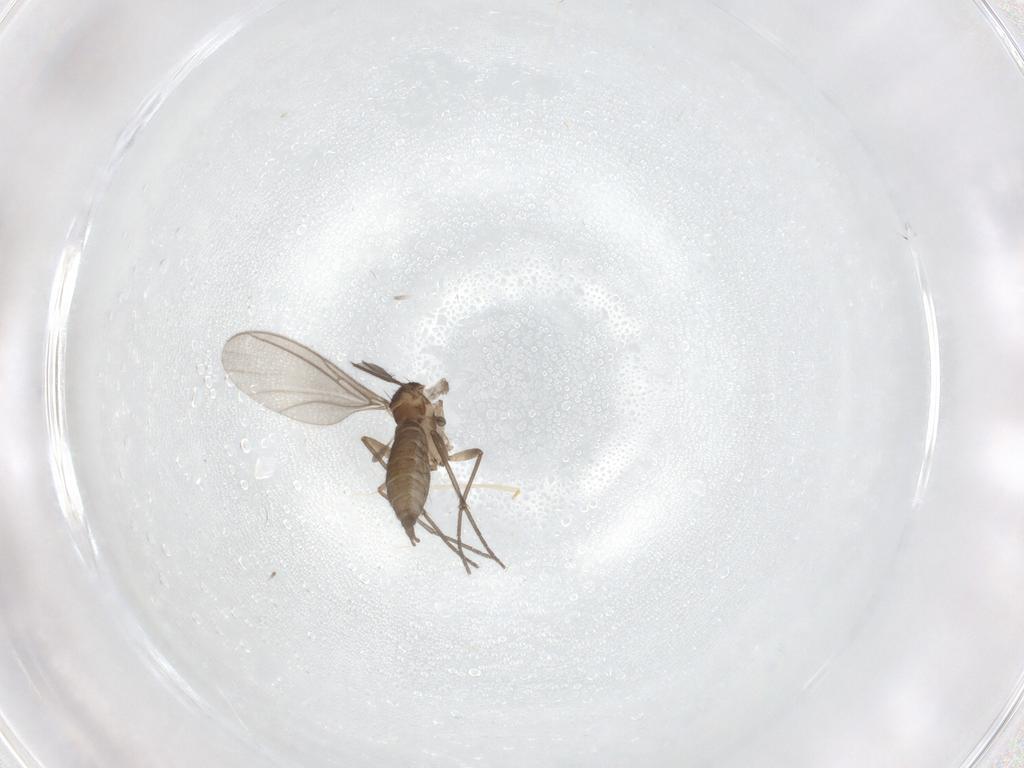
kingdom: Animalia
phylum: Arthropoda
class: Insecta
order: Diptera
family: Sciaridae
